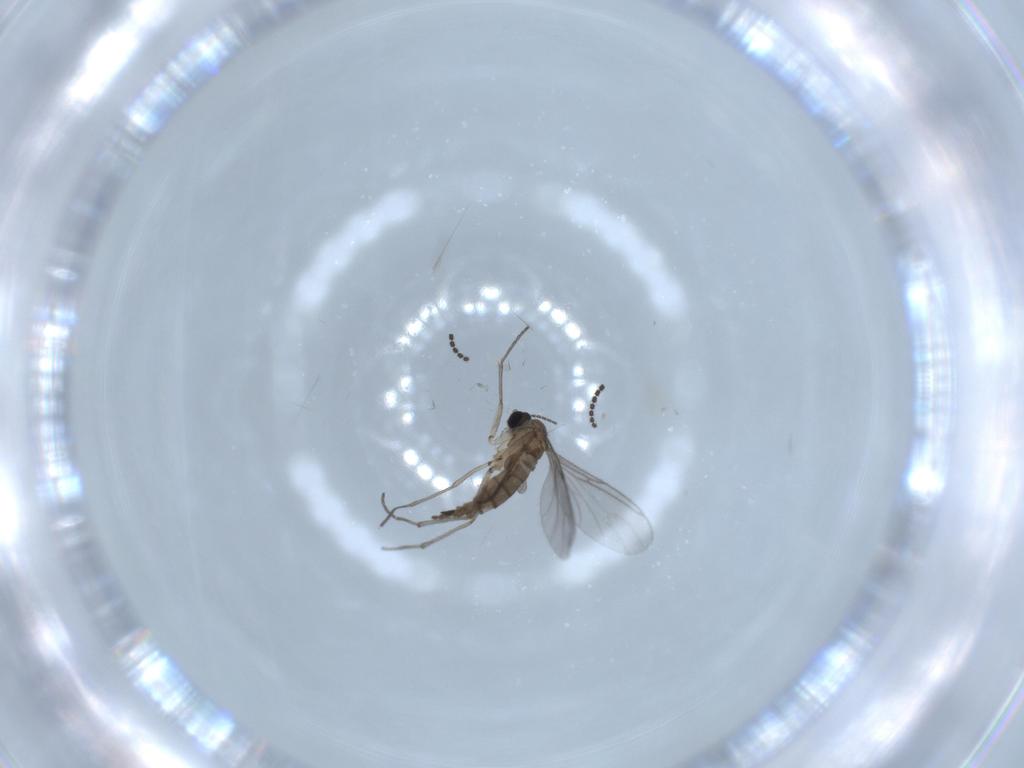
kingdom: Animalia
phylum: Arthropoda
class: Insecta
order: Diptera
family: Sciaridae
